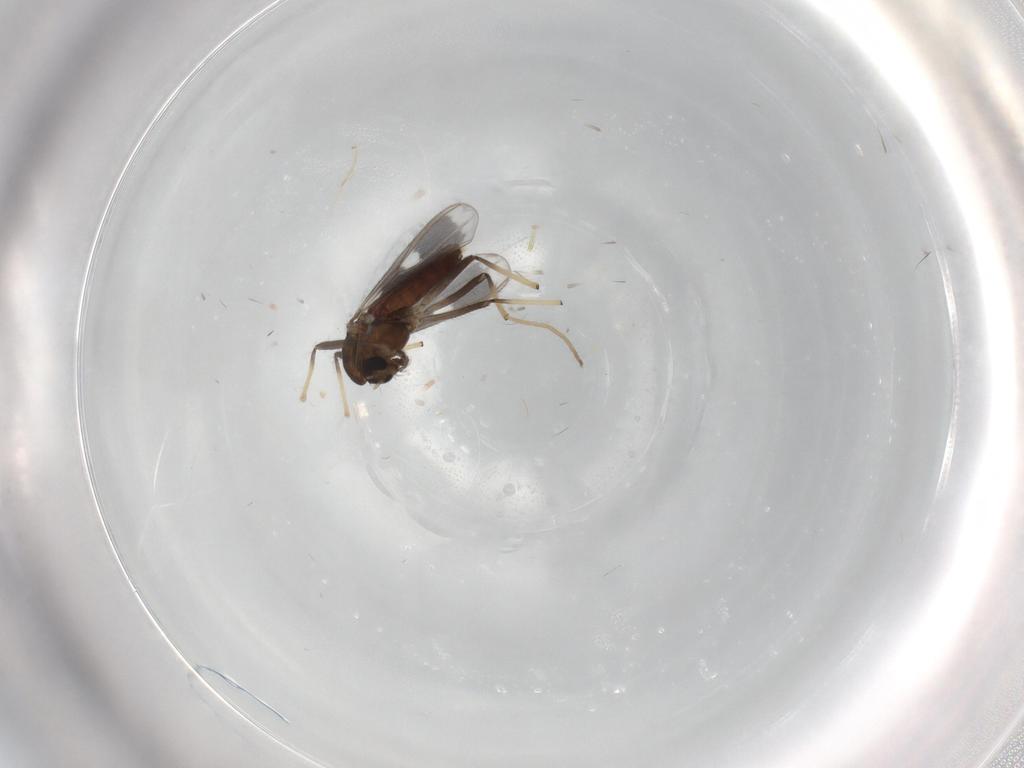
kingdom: Animalia
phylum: Arthropoda
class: Insecta
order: Diptera
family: Chironomidae
